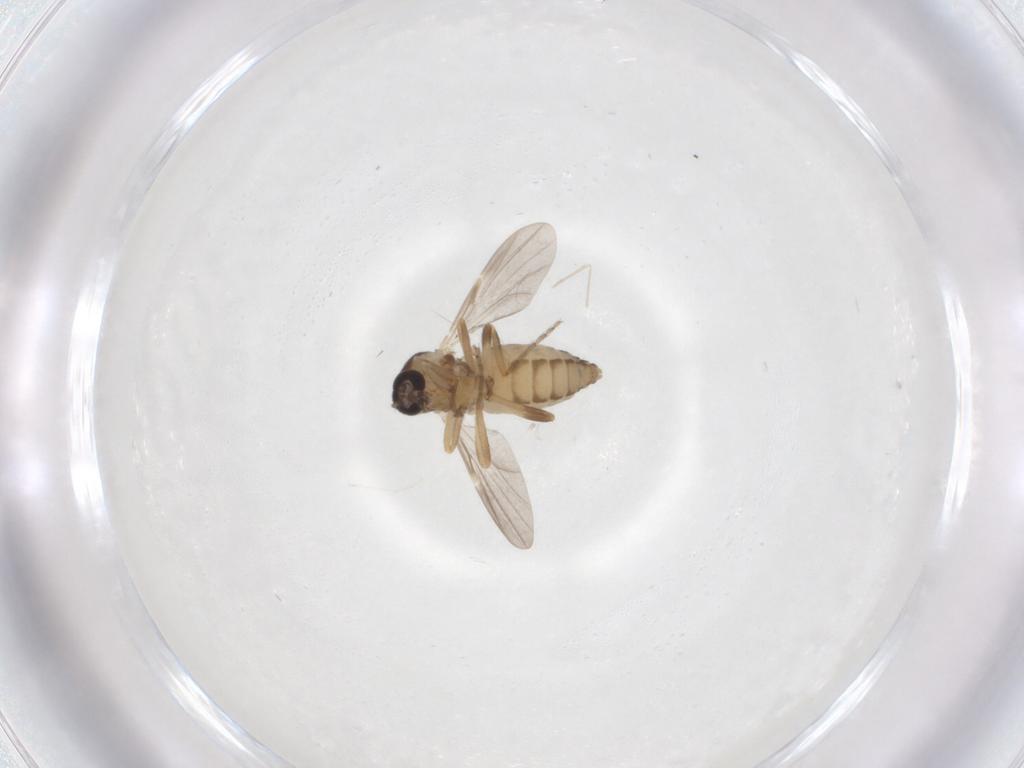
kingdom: Animalia
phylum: Arthropoda
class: Insecta
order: Diptera
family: Ceratopogonidae
